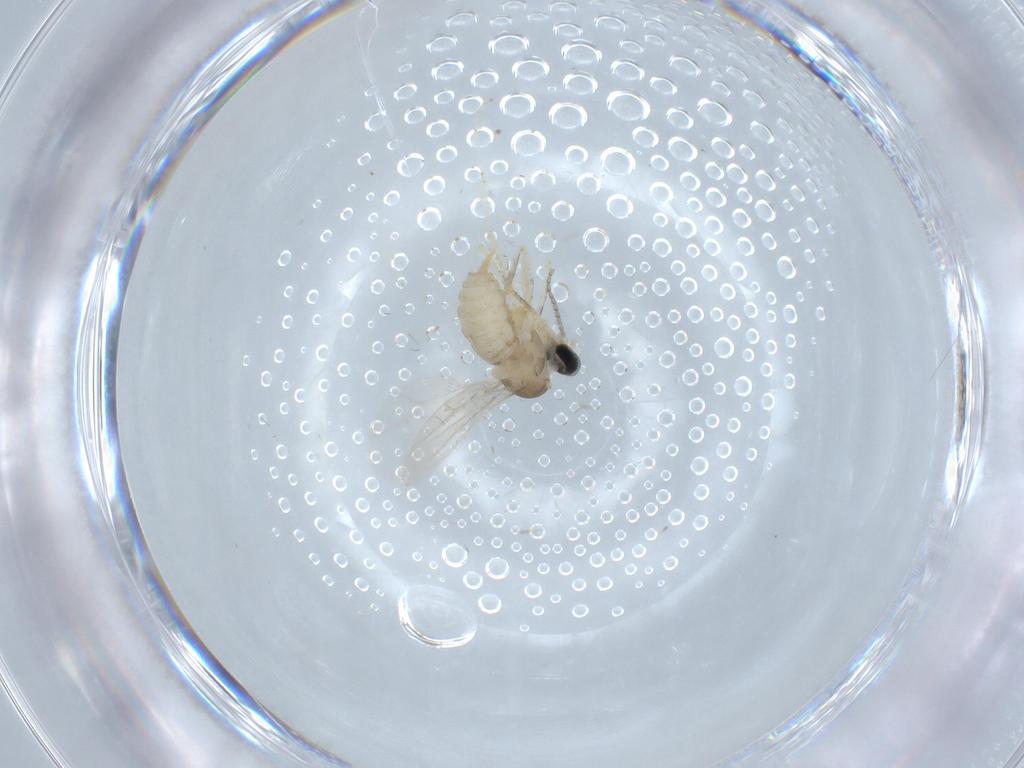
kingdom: Animalia
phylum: Arthropoda
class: Insecta
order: Diptera
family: Cecidomyiidae
